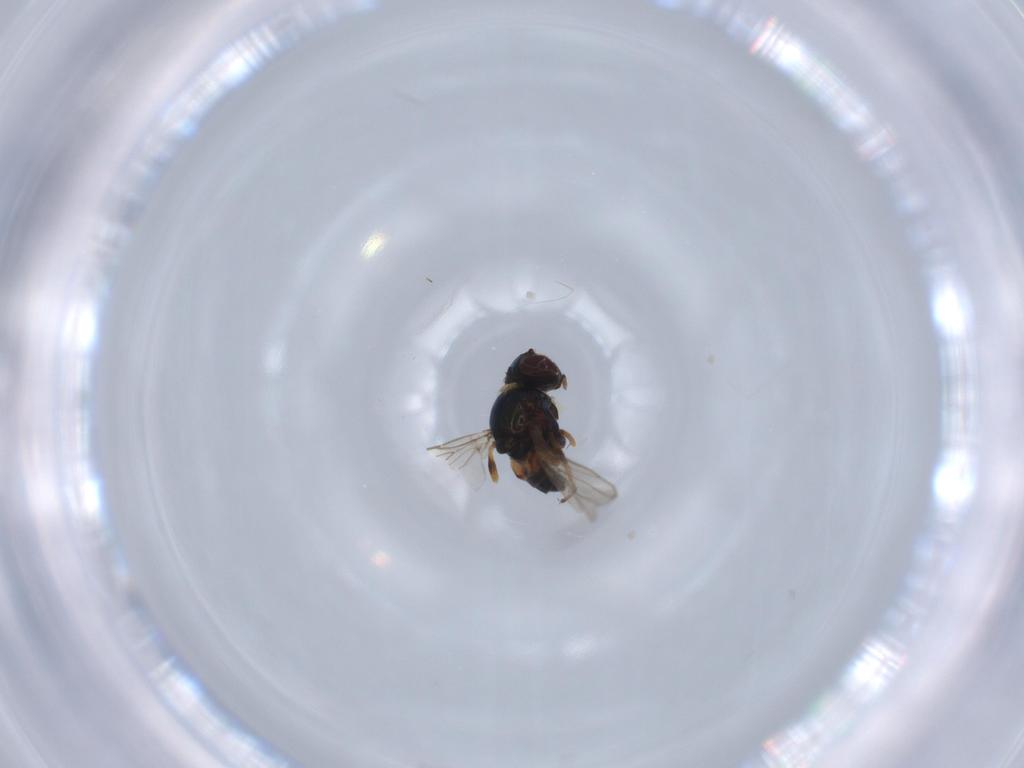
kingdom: Animalia
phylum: Arthropoda
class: Insecta
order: Diptera
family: Chloropidae
